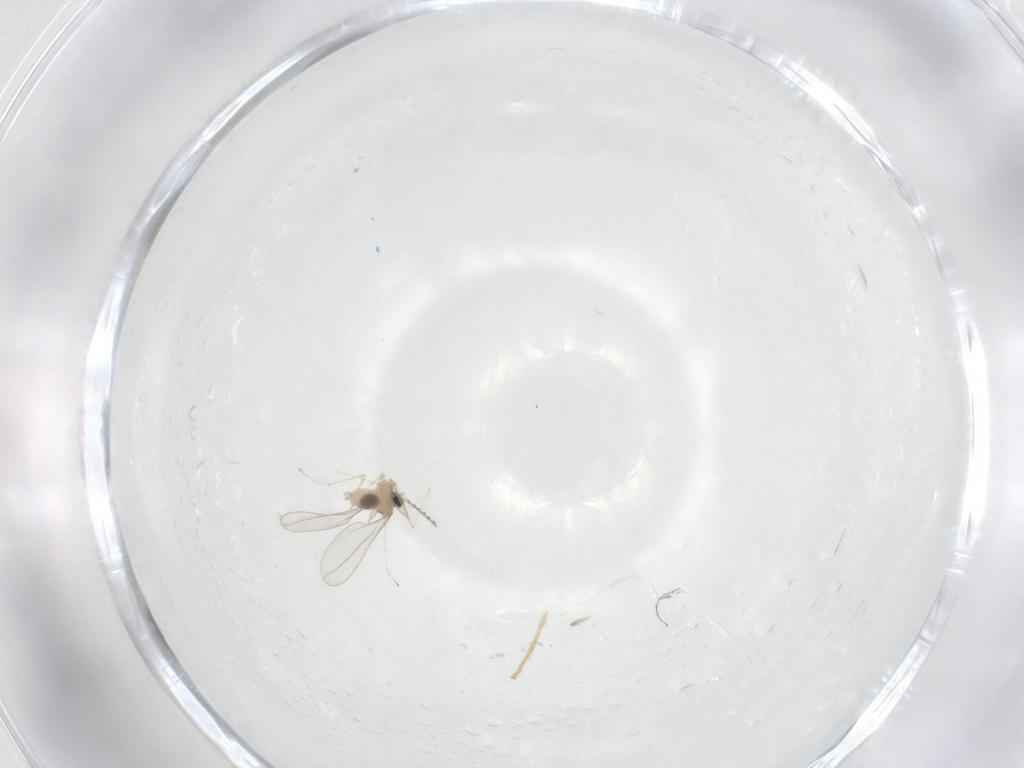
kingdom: Animalia
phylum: Arthropoda
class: Insecta
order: Diptera
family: Cecidomyiidae
